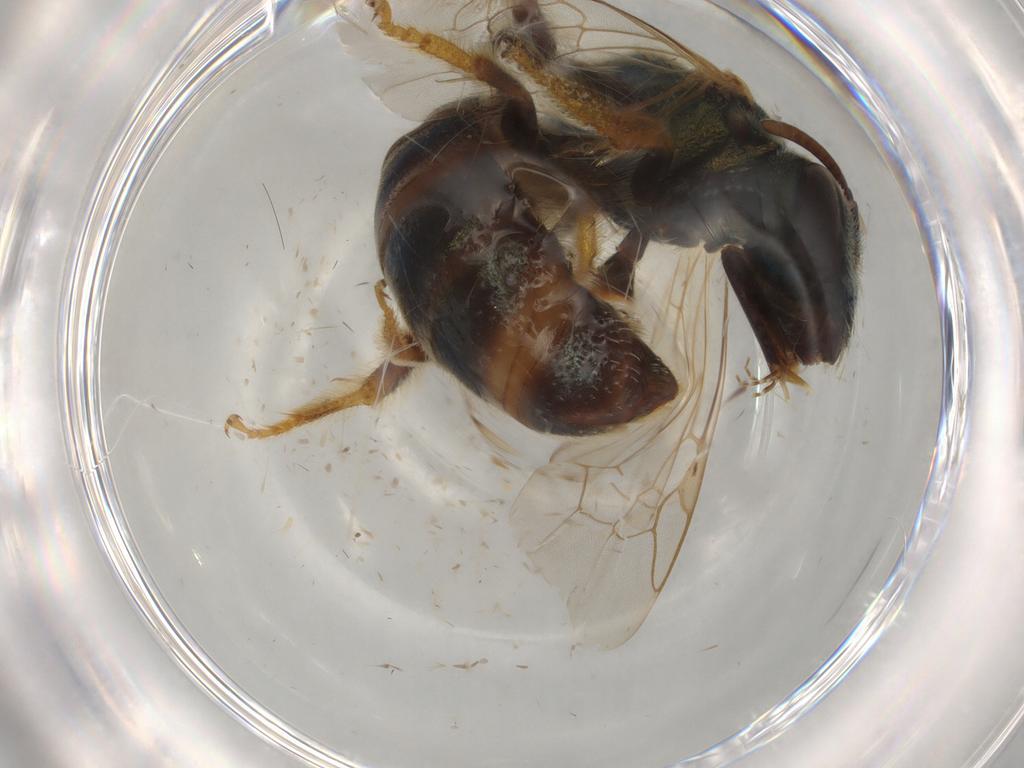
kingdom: Animalia
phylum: Arthropoda
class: Insecta
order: Hymenoptera
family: Halictidae
